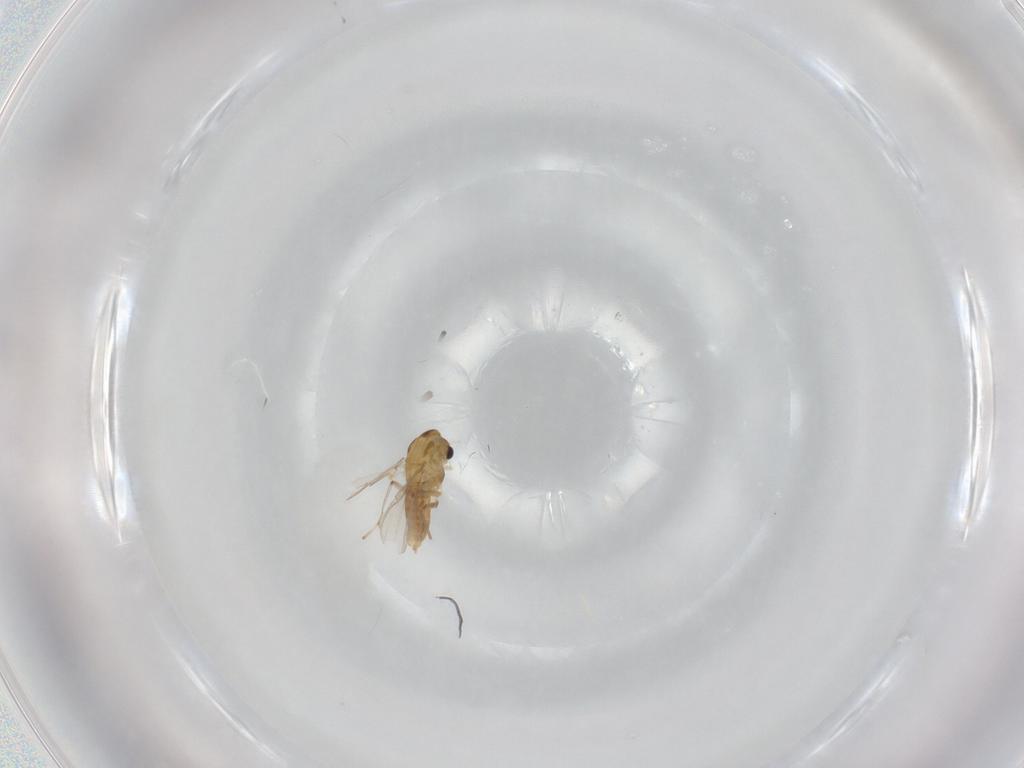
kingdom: Animalia
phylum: Arthropoda
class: Insecta
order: Diptera
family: Chironomidae
